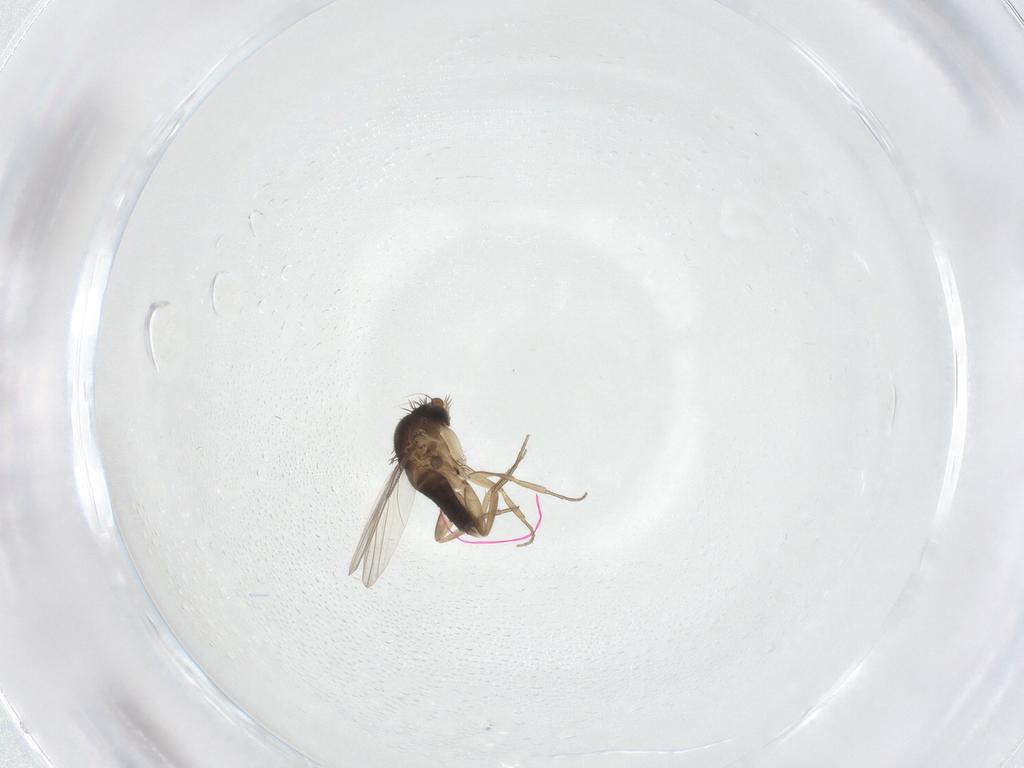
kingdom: Animalia
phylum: Arthropoda
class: Insecta
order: Diptera
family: Phoridae
